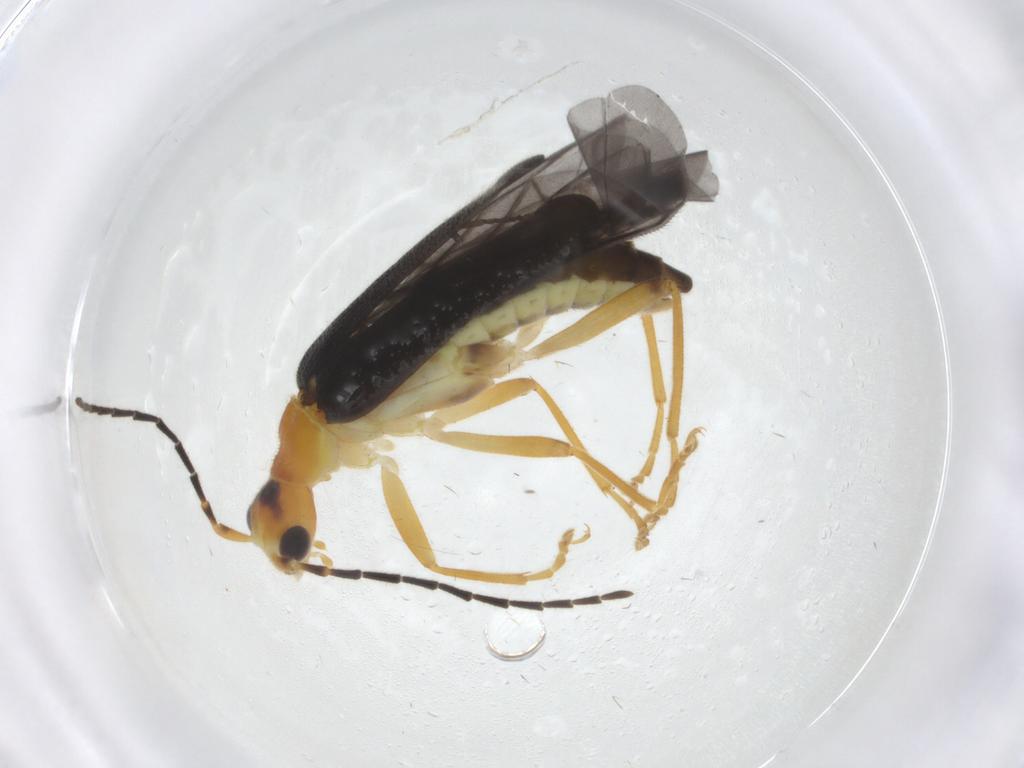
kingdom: Animalia
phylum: Arthropoda
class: Insecta
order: Coleoptera
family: Cantharidae
